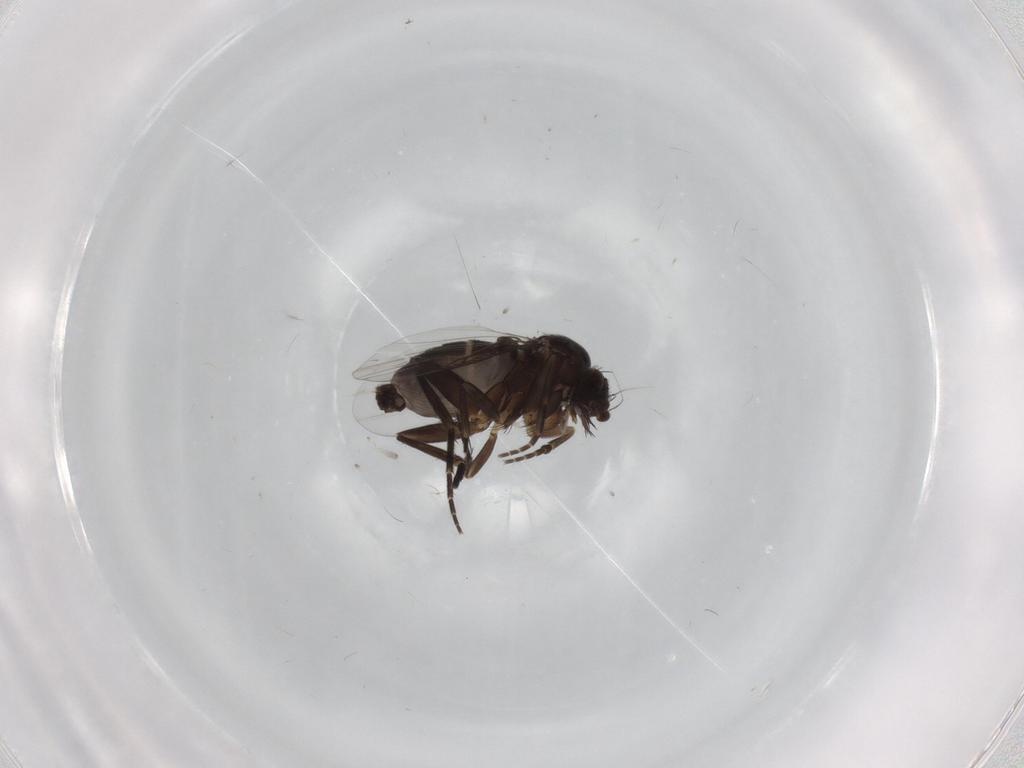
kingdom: Animalia
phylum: Arthropoda
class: Insecta
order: Diptera
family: Phoridae
